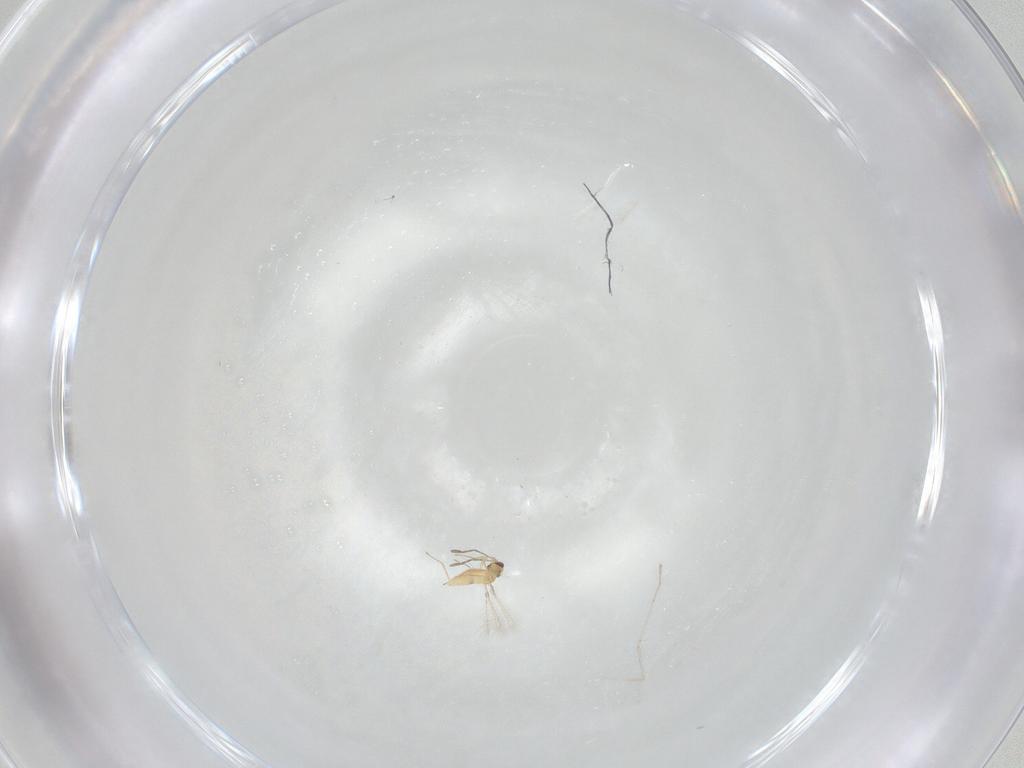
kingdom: Animalia
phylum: Arthropoda
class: Insecta
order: Diptera
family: Cecidomyiidae
